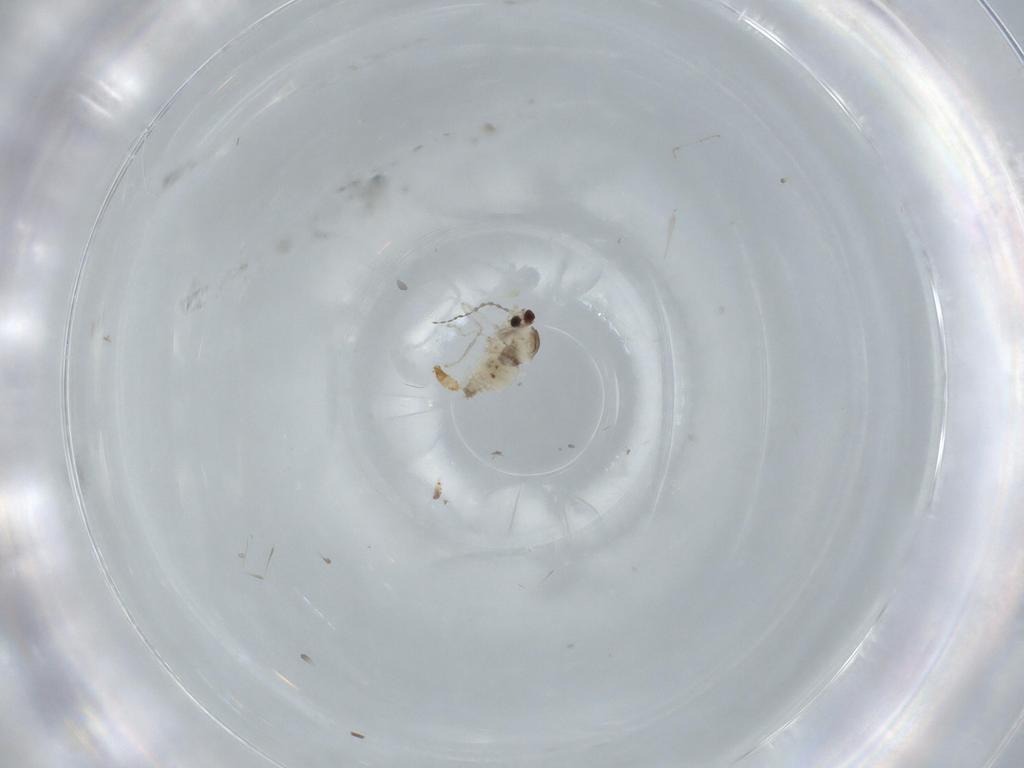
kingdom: Animalia
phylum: Arthropoda
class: Insecta
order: Diptera
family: Cecidomyiidae
